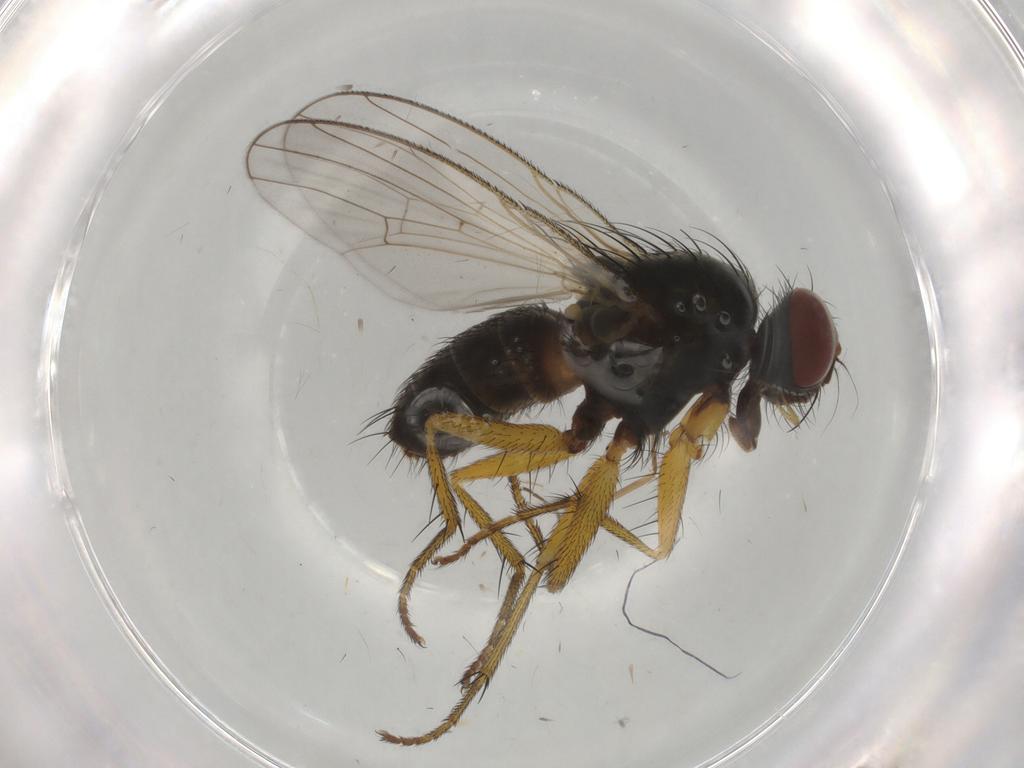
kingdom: Animalia
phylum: Arthropoda
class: Insecta
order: Diptera
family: Muscidae
